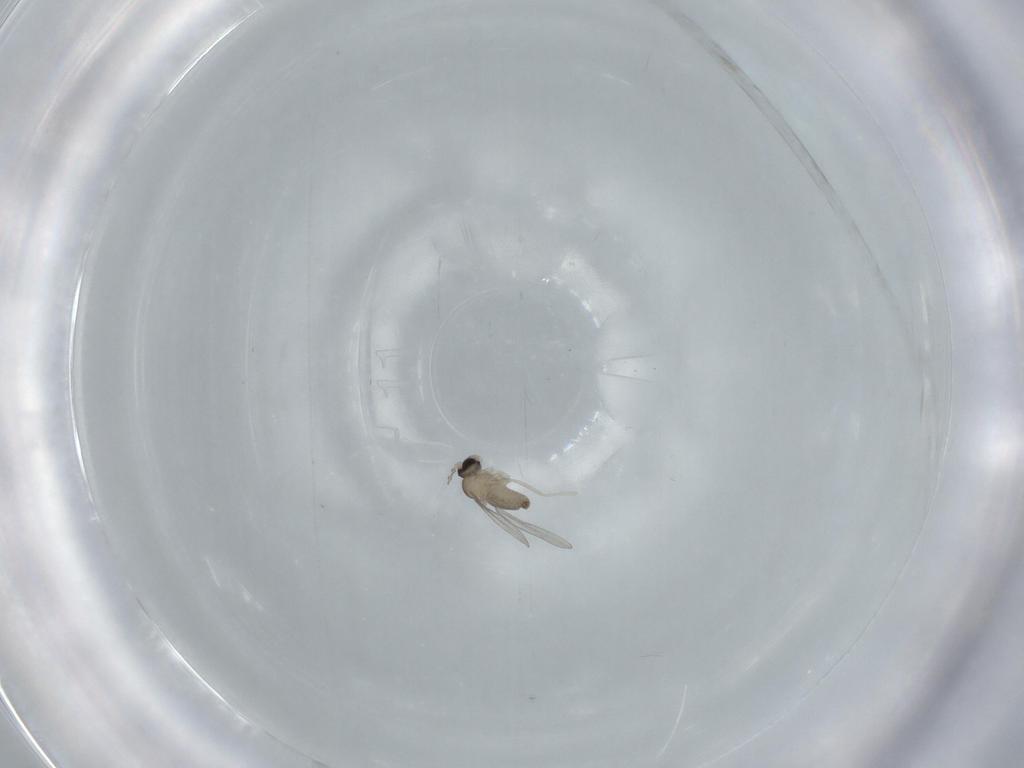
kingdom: Animalia
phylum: Arthropoda
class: Insecta
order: Diptera
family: Cecidomyiidae
